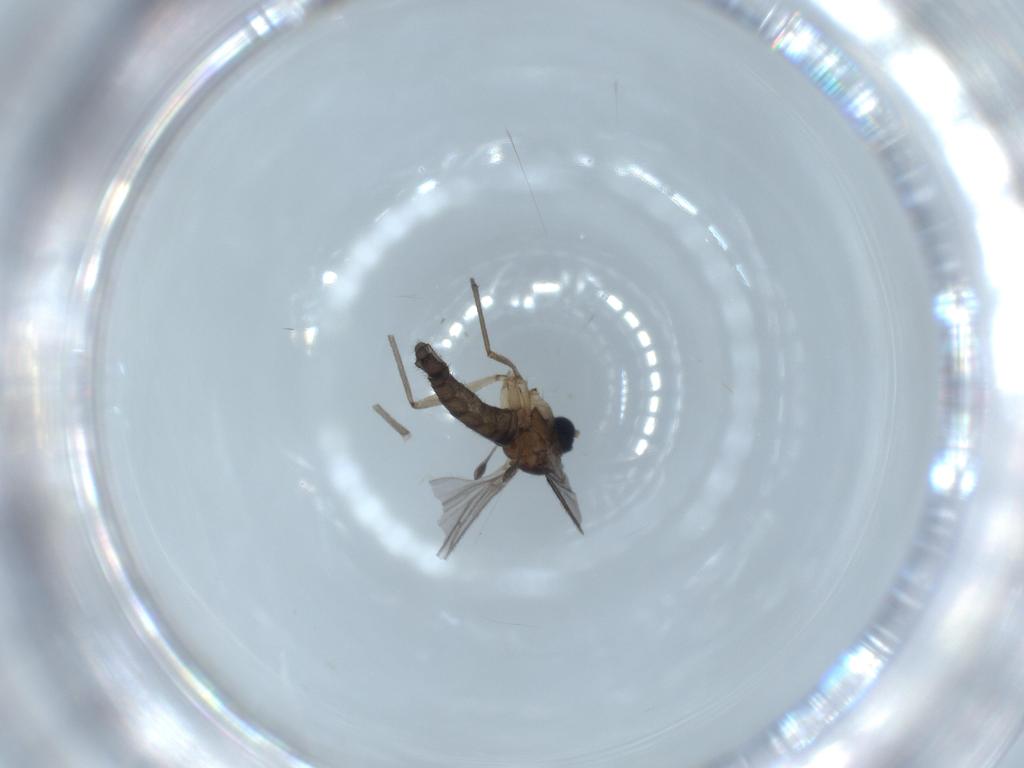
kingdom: Animalia
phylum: Arthropoda
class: Insecta
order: Diptera
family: Sciaridae
